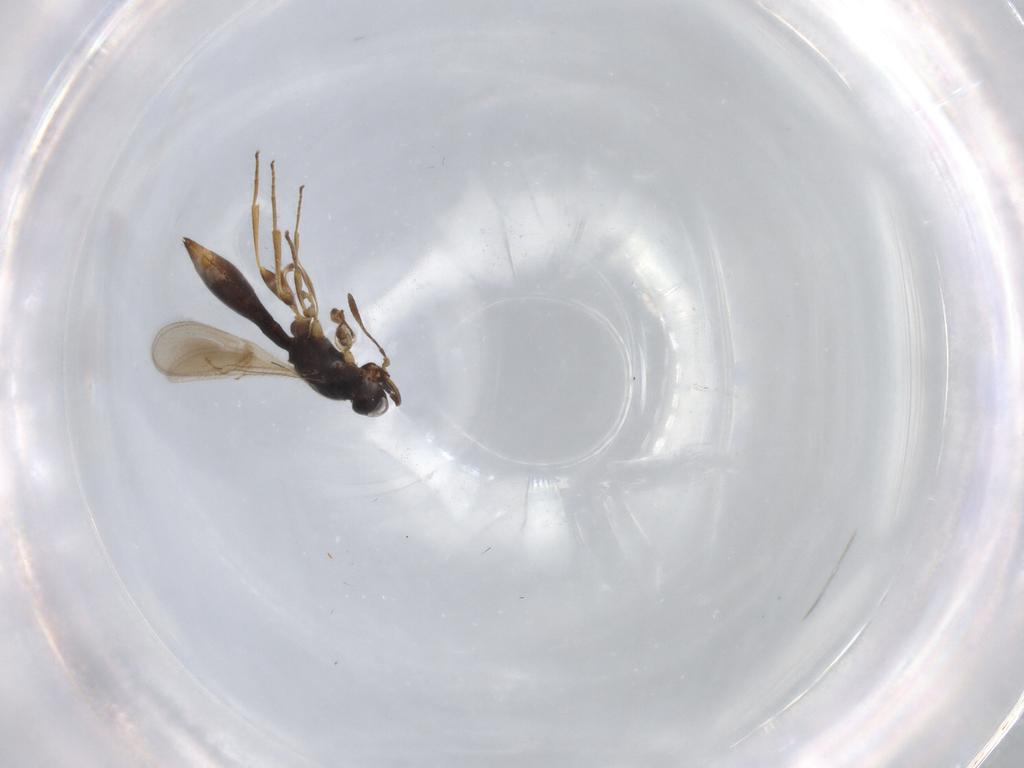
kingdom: Animalia
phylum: Arthropoda
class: Insecta
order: Hymenoptera
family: Scelionidae
